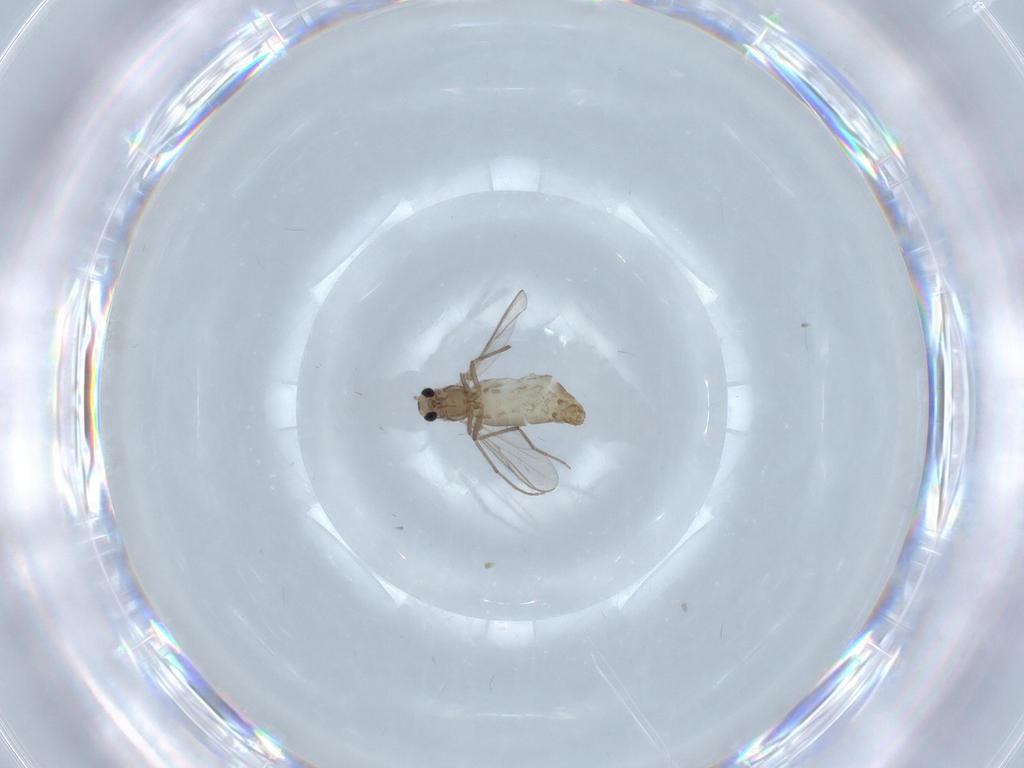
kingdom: Animalia
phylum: Arthropoda
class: Insecta
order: Diptera
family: Chironomidae
